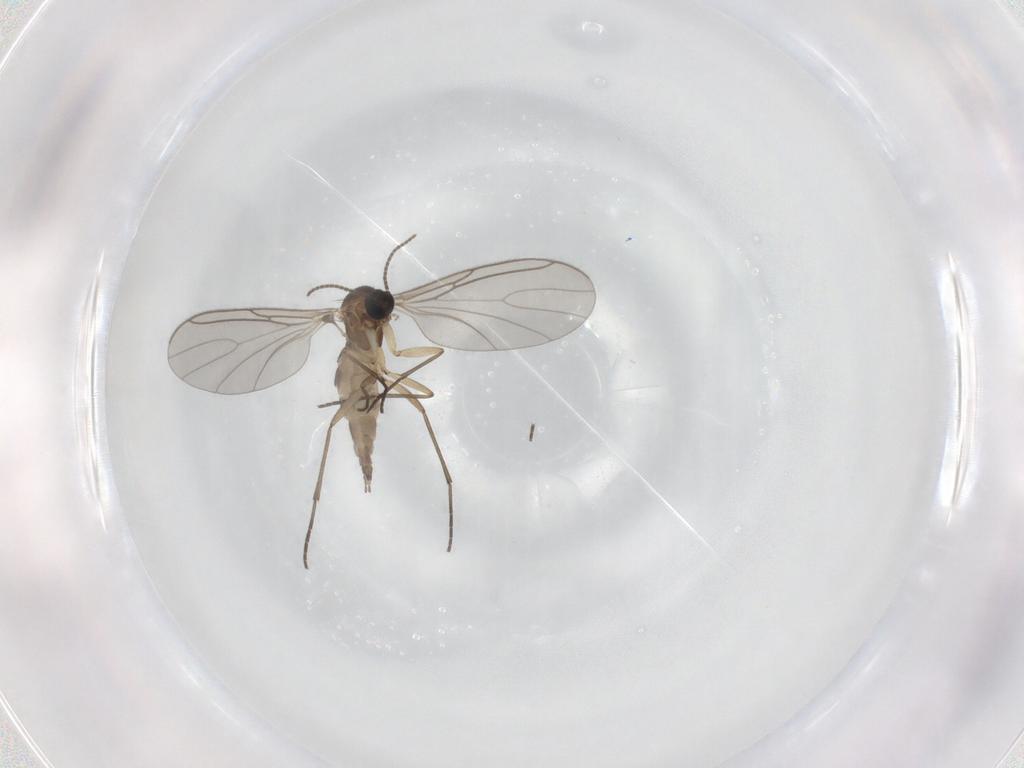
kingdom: Animalia
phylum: Arthropoda
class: Insecta
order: Diptera
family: Sciaridae
